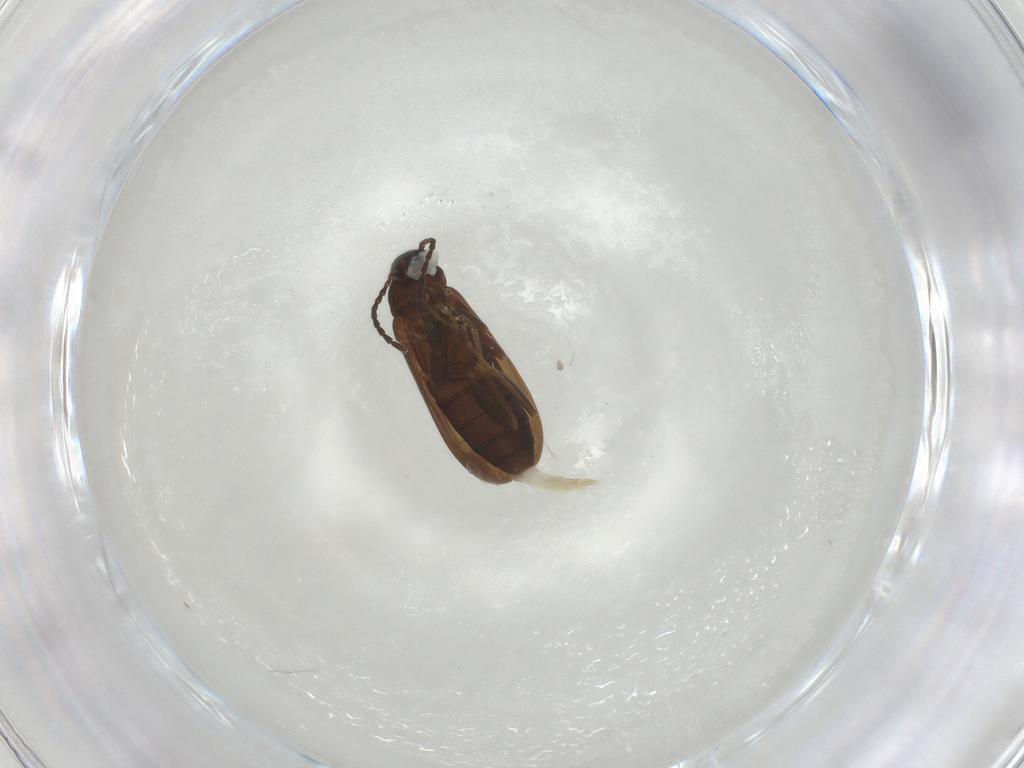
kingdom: Animalia
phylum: Arthropoda
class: Insecta
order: Coleoptera
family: Scraptiidae
